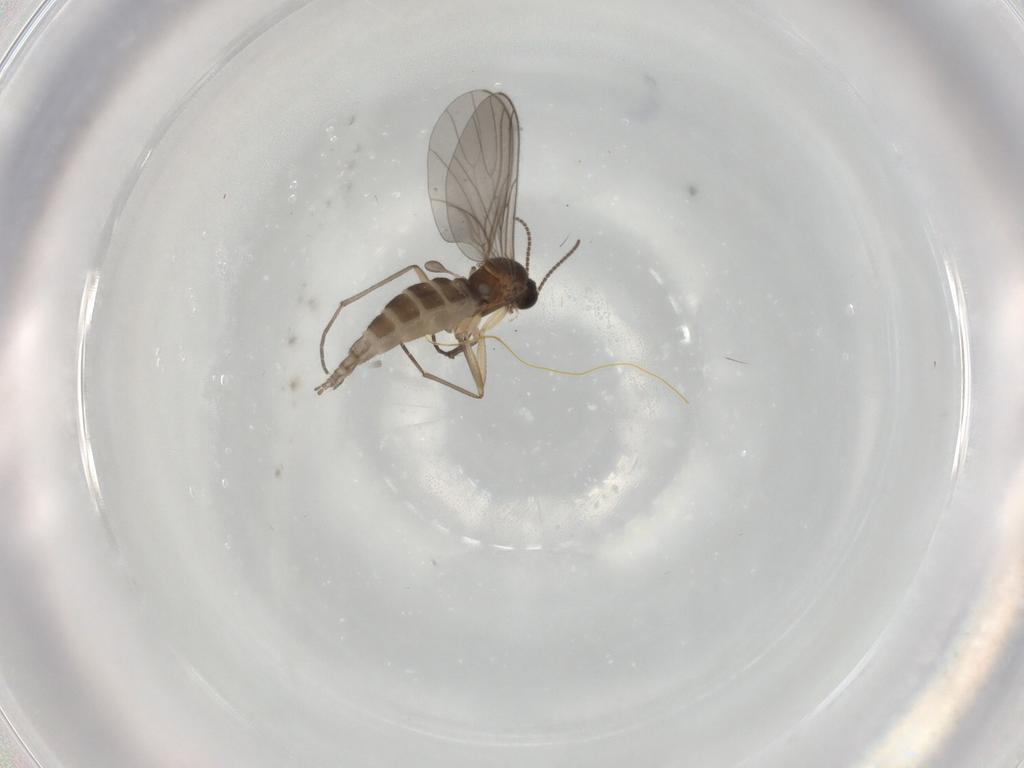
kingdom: Animalia
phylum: Arthropoda
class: Insecta
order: Diptera
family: Sciaridae
